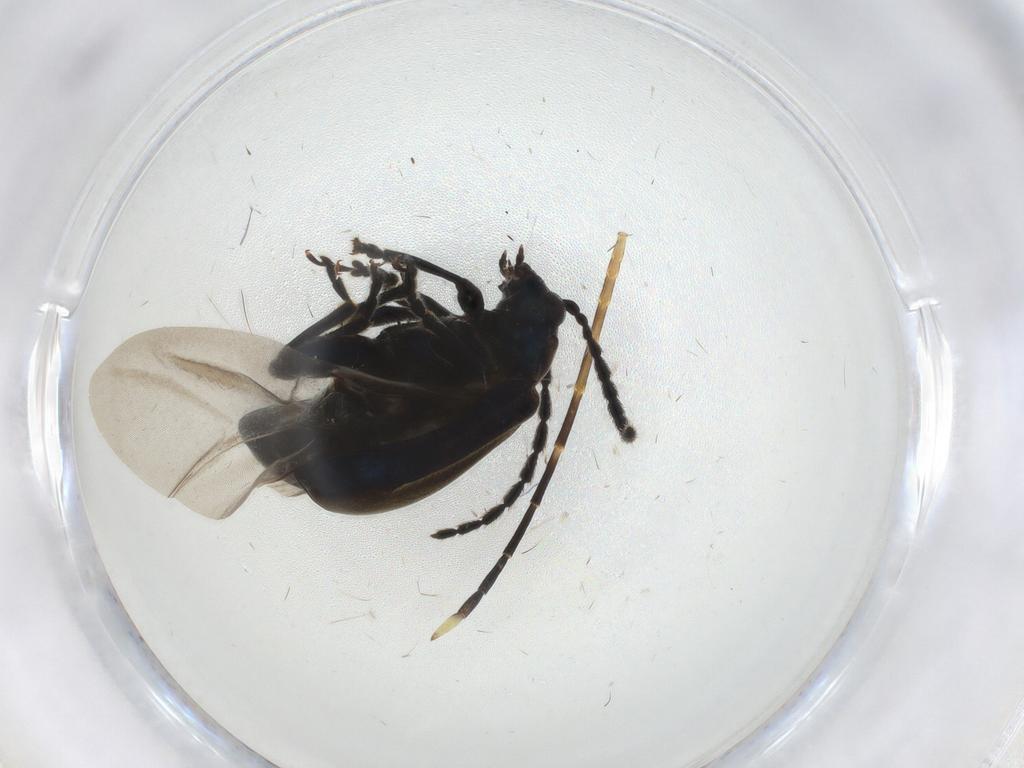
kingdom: Animalia
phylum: Arthropoda
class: Insecta
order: Coleoptera
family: Chrysomelidae
